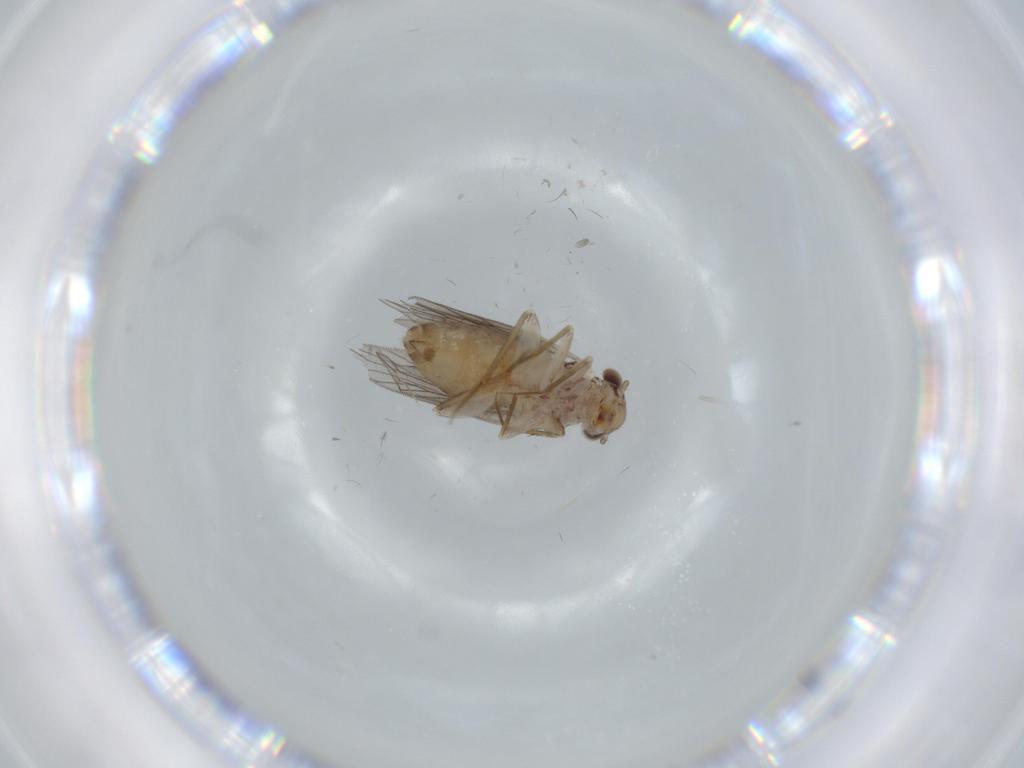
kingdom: Animalia
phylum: Arthropoda
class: Insecta
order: Psocodea
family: Lepidopsocidae
